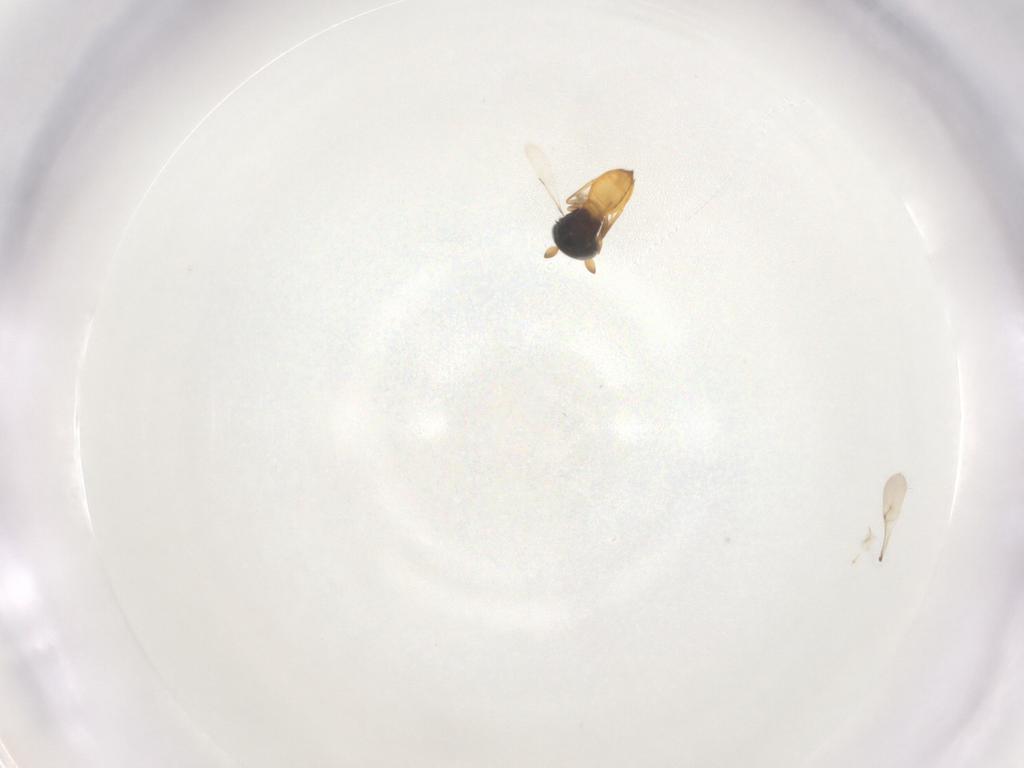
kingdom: Animalia
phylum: Arthropoda
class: Insecta
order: Hymenoptera
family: Scelionidae
